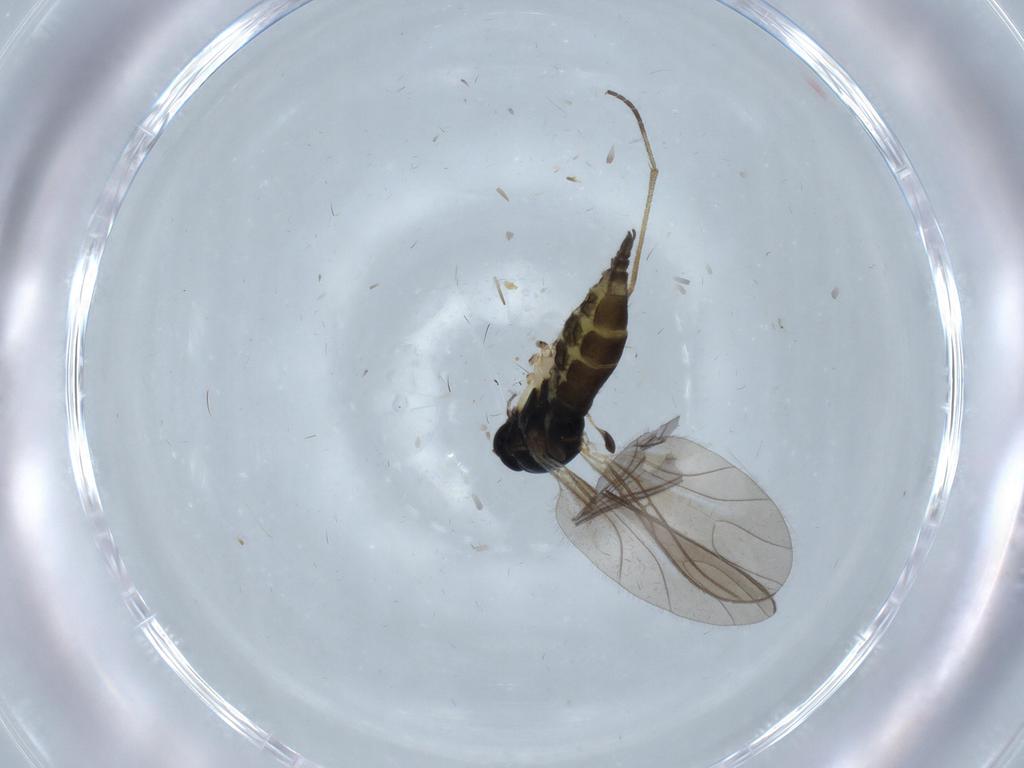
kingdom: Animalia
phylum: Arthropoda
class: Insecta
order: Diptera
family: Sciaridae
